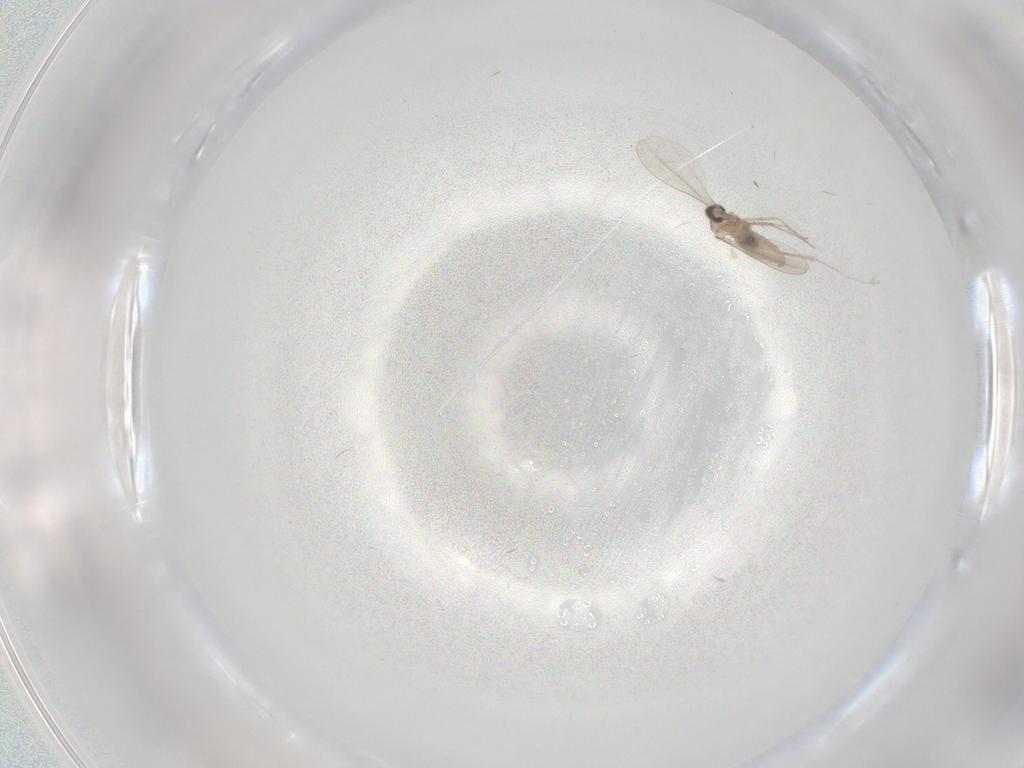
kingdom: Animalia
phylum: Arthropoda
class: Insecta
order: Diptera
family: Cecidomyiidae
